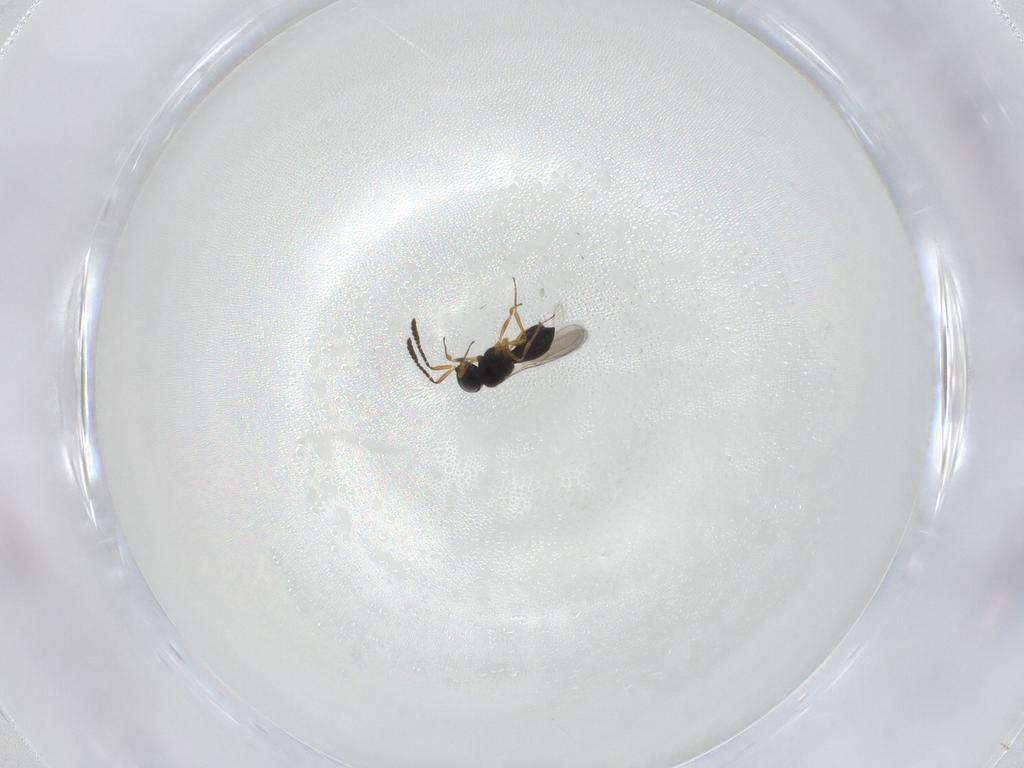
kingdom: Animalia
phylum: Arthropoda
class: Insecta
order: Hymenoptera
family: Scelionidae
